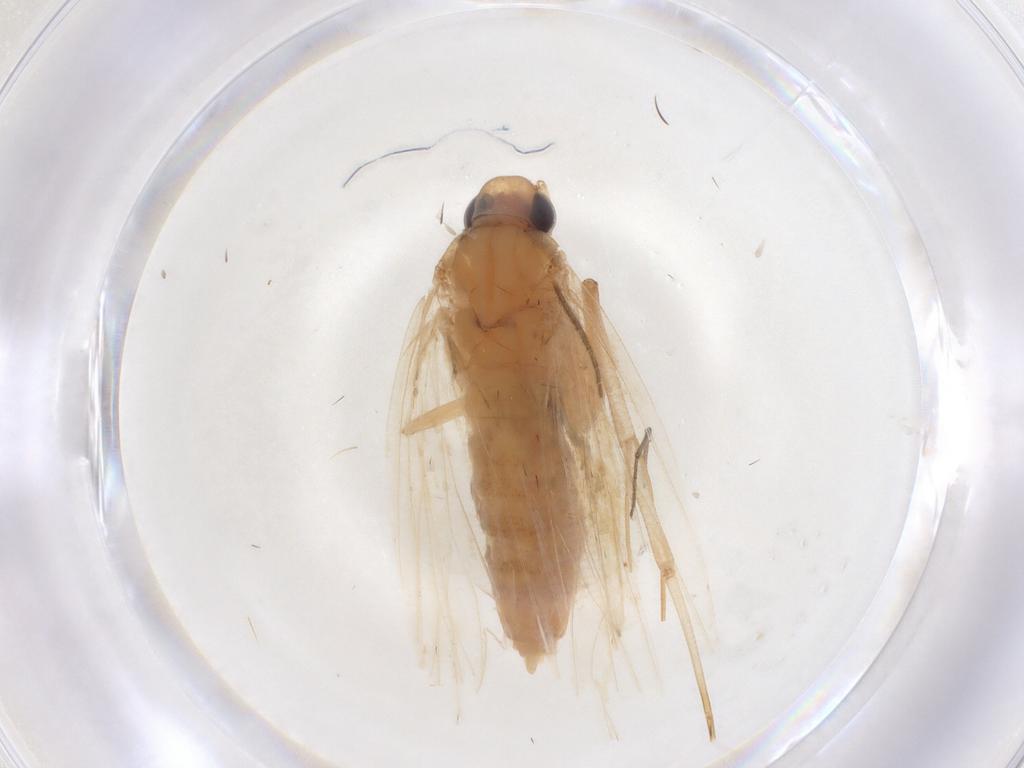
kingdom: Animalia
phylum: Arthropoda
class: Insecta
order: Lepidoptera
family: Lecithoceridae
